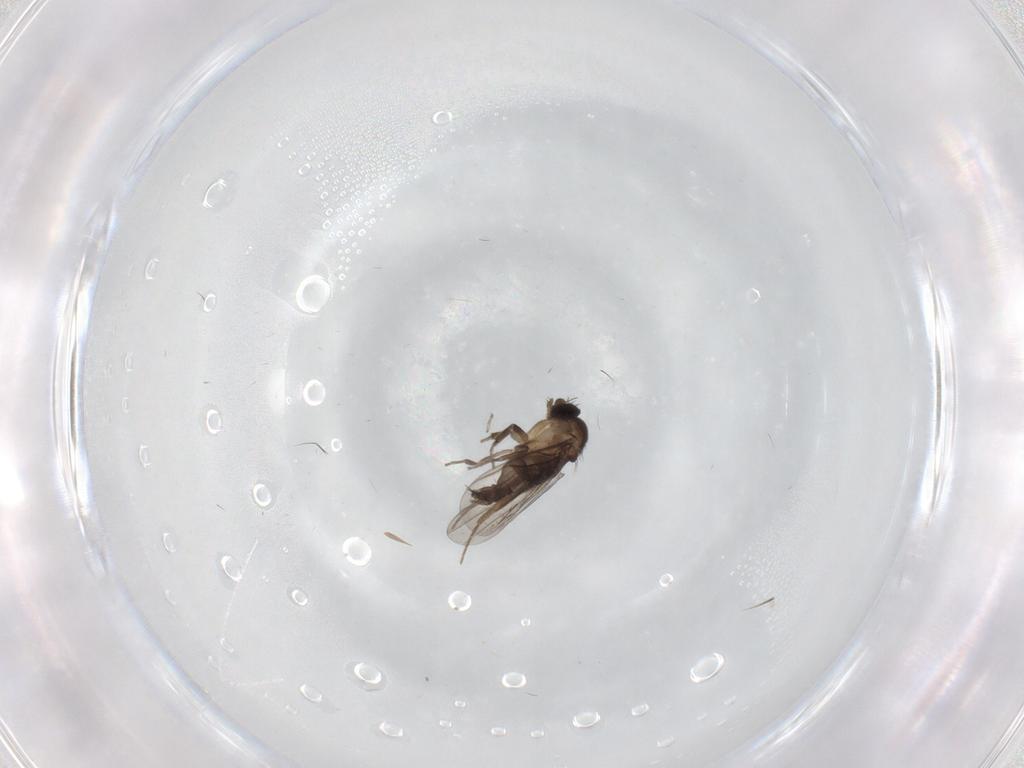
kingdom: Animalia
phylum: Arthropoda
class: Insecta
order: Diptera
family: Cecidomyiidae
